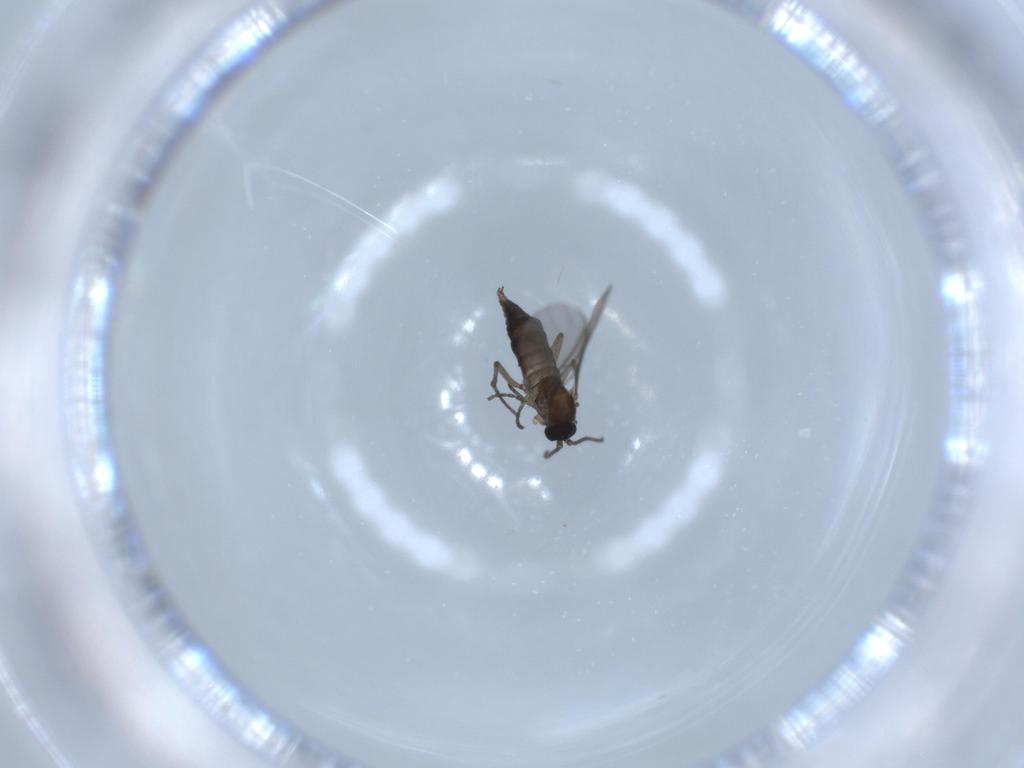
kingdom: Animalia
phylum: Arthropoda
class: Insecta
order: Diptera
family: Sciaridae
